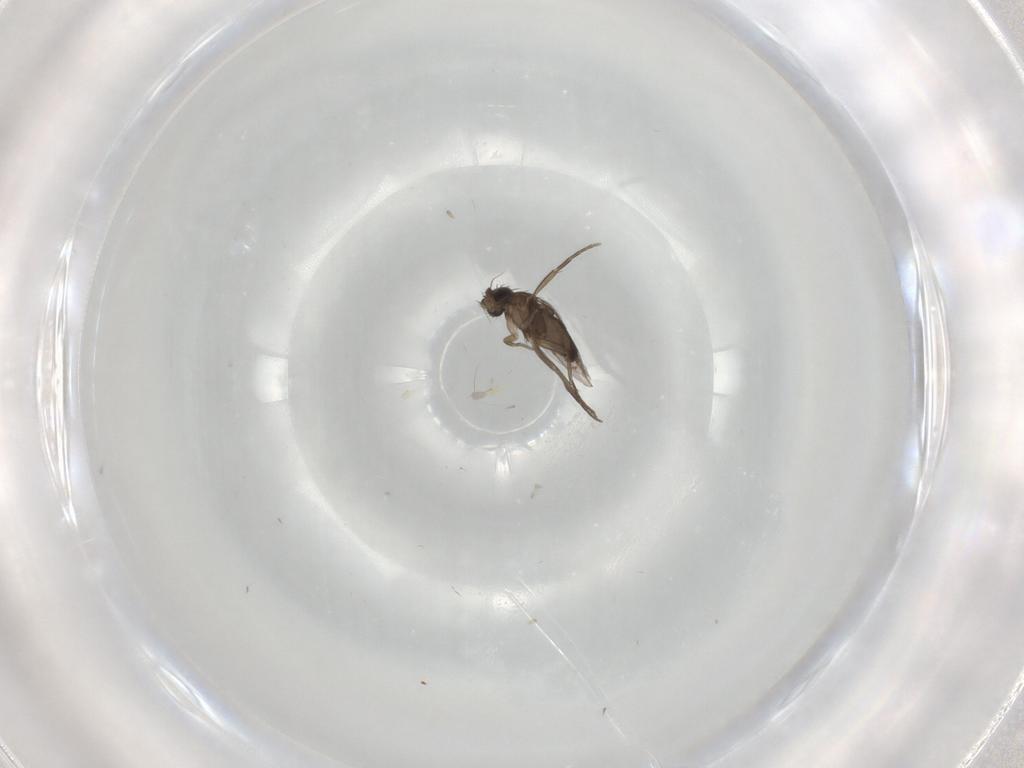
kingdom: Animalia
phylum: Arthropoda
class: Insecta
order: Diptera
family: Phoridae
